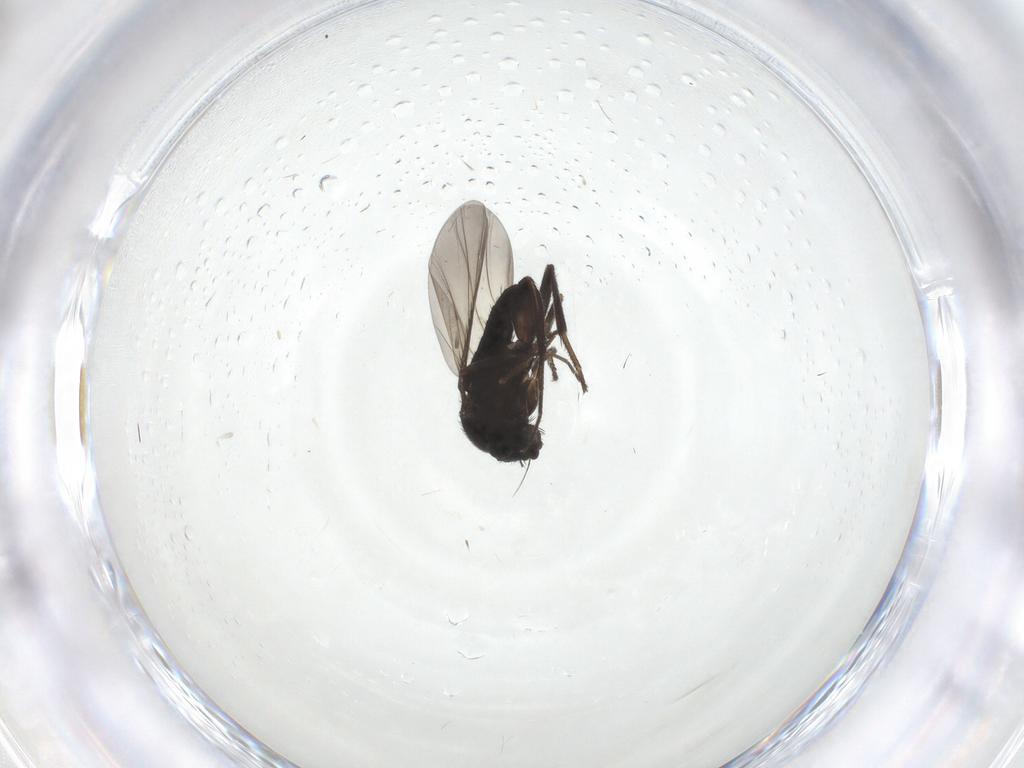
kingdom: Animalia
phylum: Arthropoda
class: Insecta
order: Diptera
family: Phoridae
